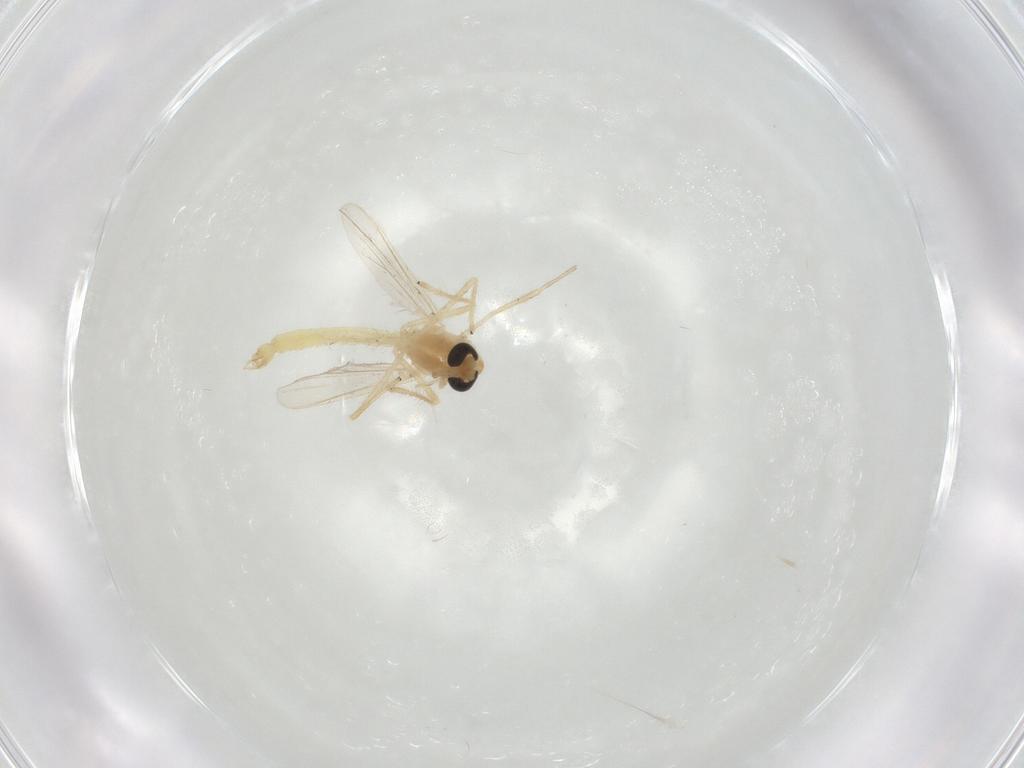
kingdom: Animalia
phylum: Arthropoda
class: Insecta
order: Diptera
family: Chironomidae
